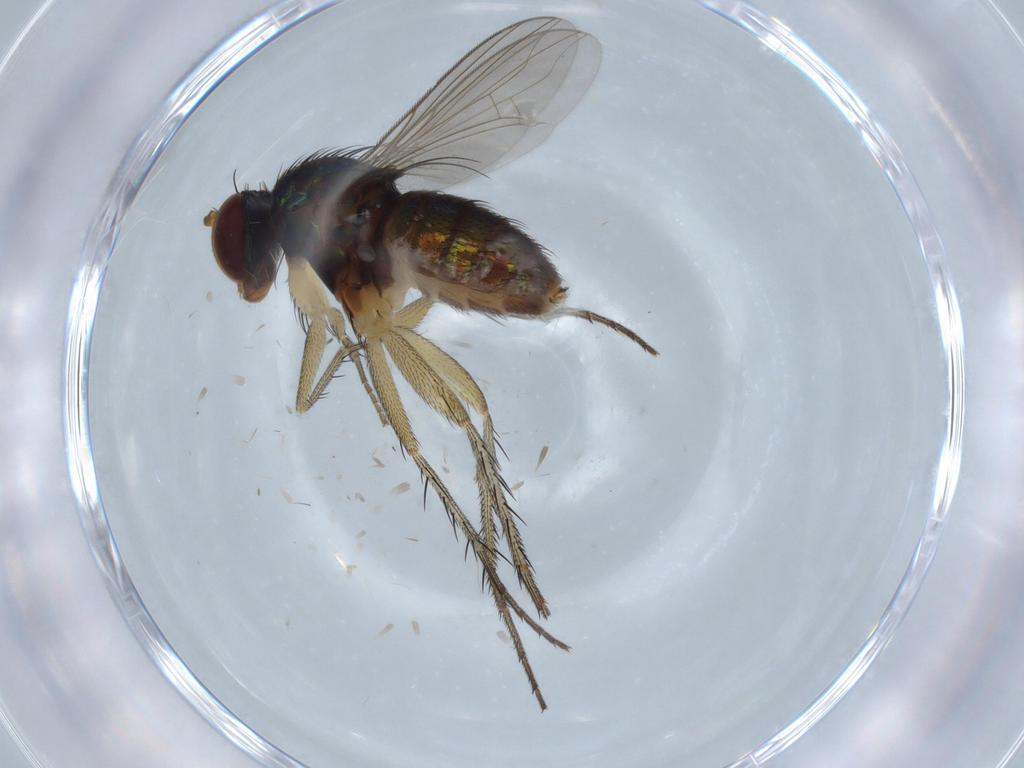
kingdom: Animalia
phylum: Arthropoda
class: Insecta
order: Diptera
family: Dolichopodidae
